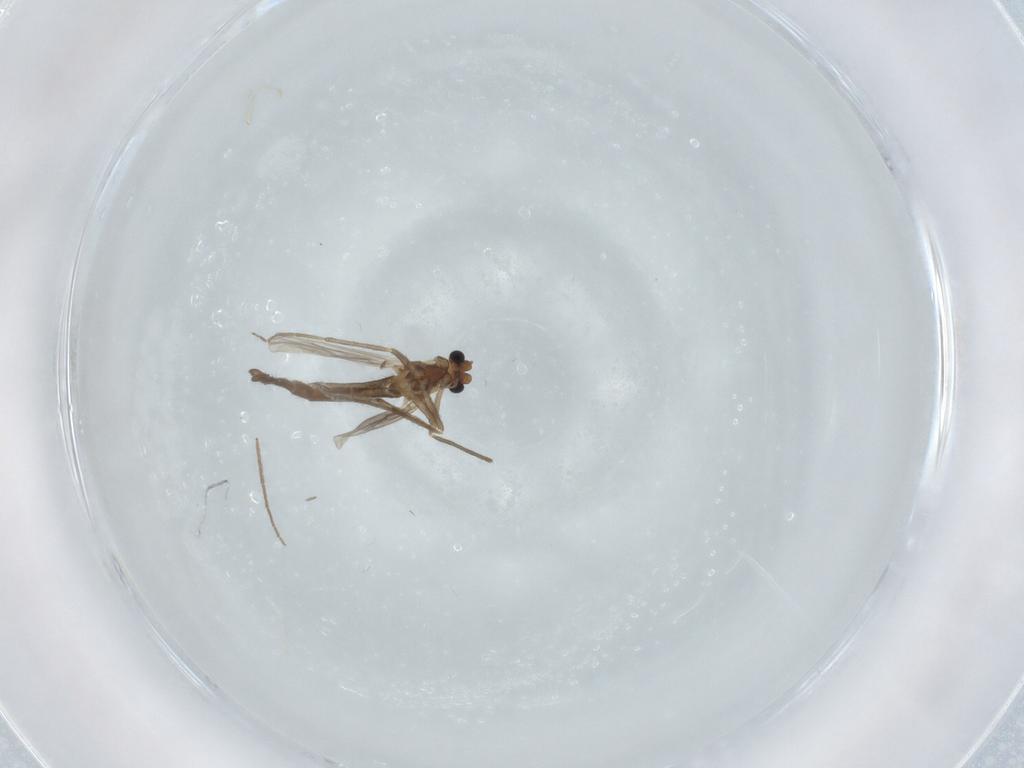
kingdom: Animalia
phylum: Arthropoda
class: Insecta
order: Diptera
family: Chironomidae
